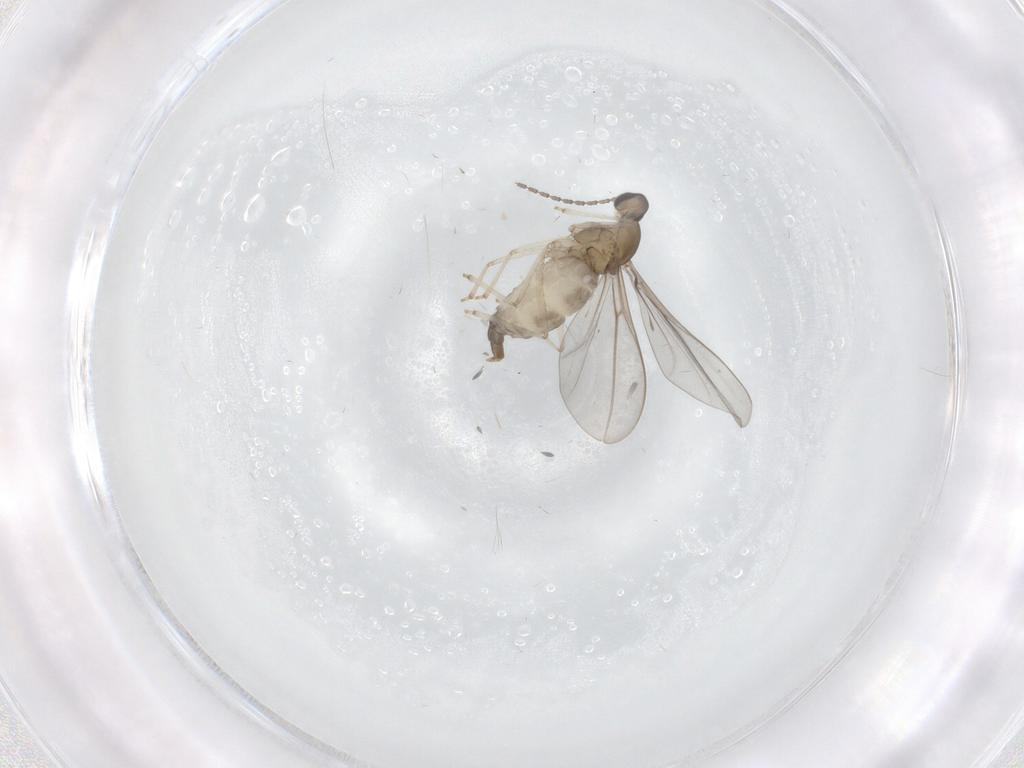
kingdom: Animalia
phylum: Arthropoda
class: Insecta
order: Diptera
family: Cecidomyiidae
